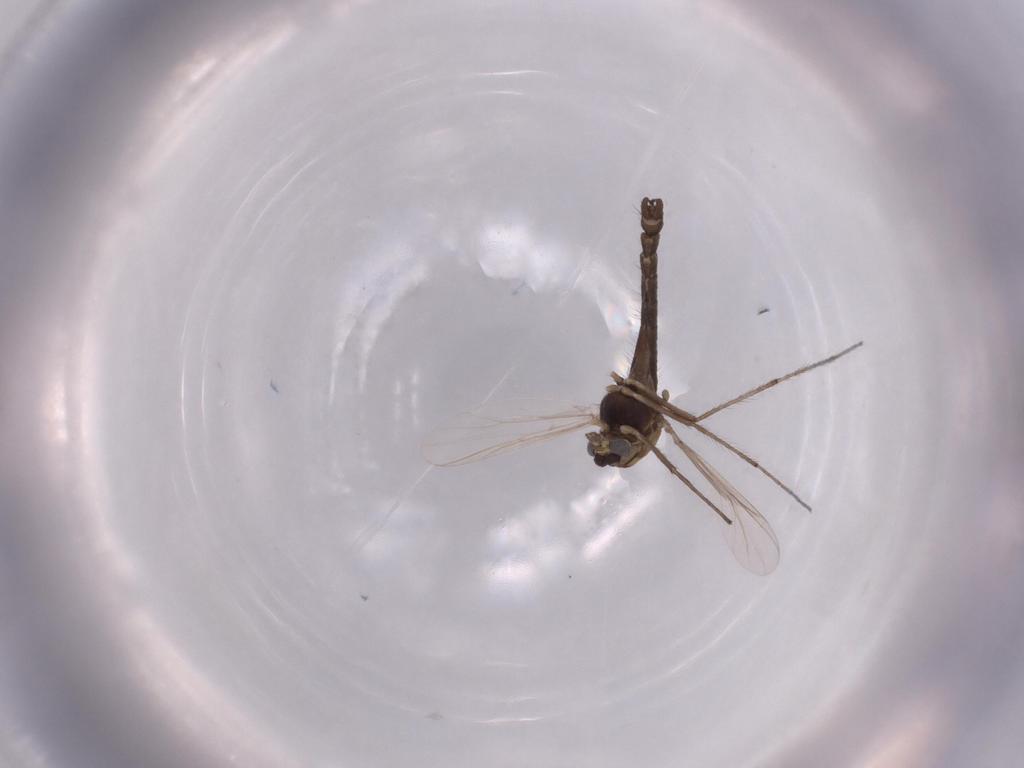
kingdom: Animalia
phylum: Arthropoda
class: Insecta
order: Diptera
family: Chironomidae
